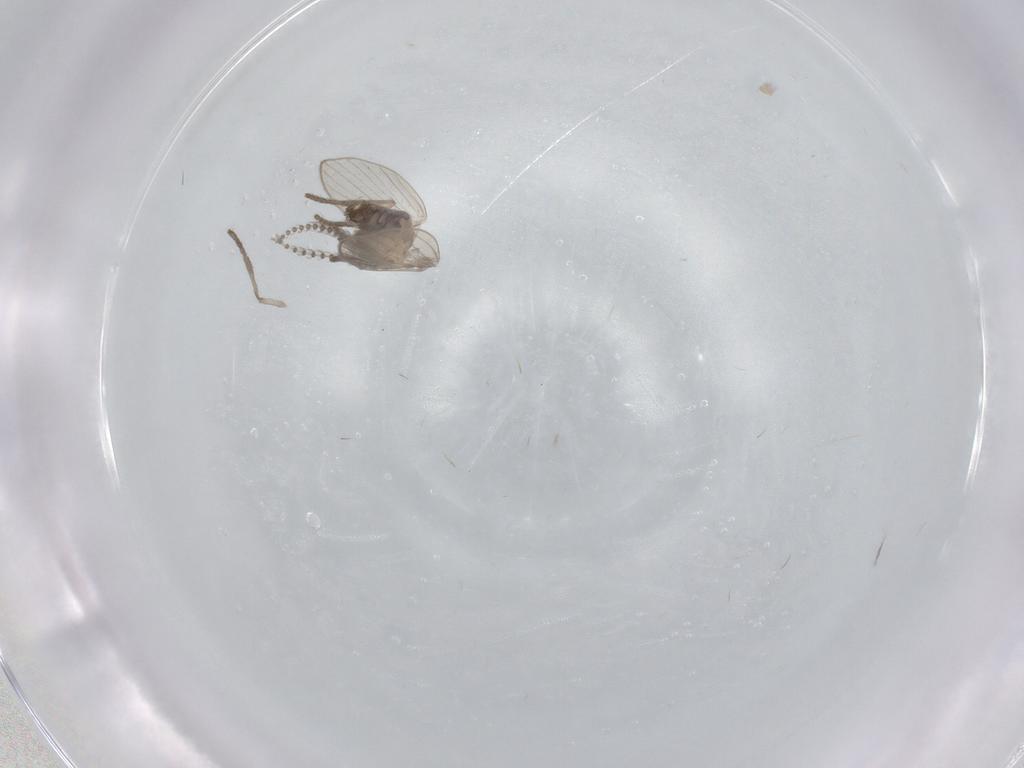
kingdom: Animalia
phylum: Arthropoda
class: Insecta
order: Diptera
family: Psychodidae
